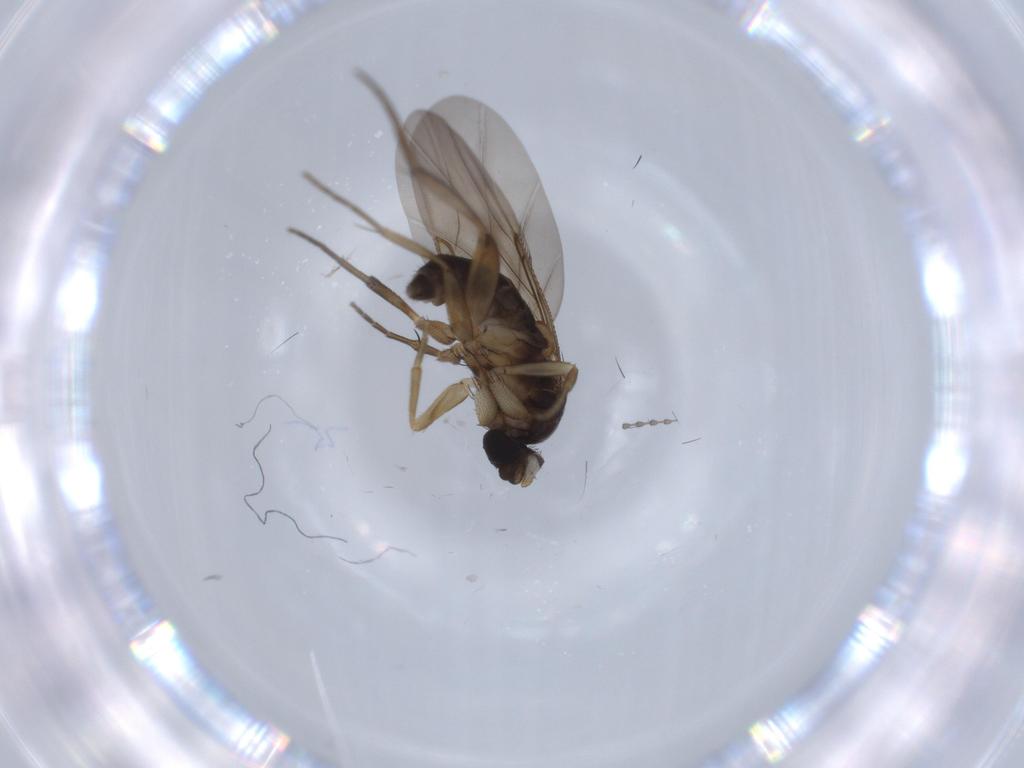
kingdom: Animalia
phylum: Arthropoda
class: Insecta
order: Diptera
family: Phoridae
